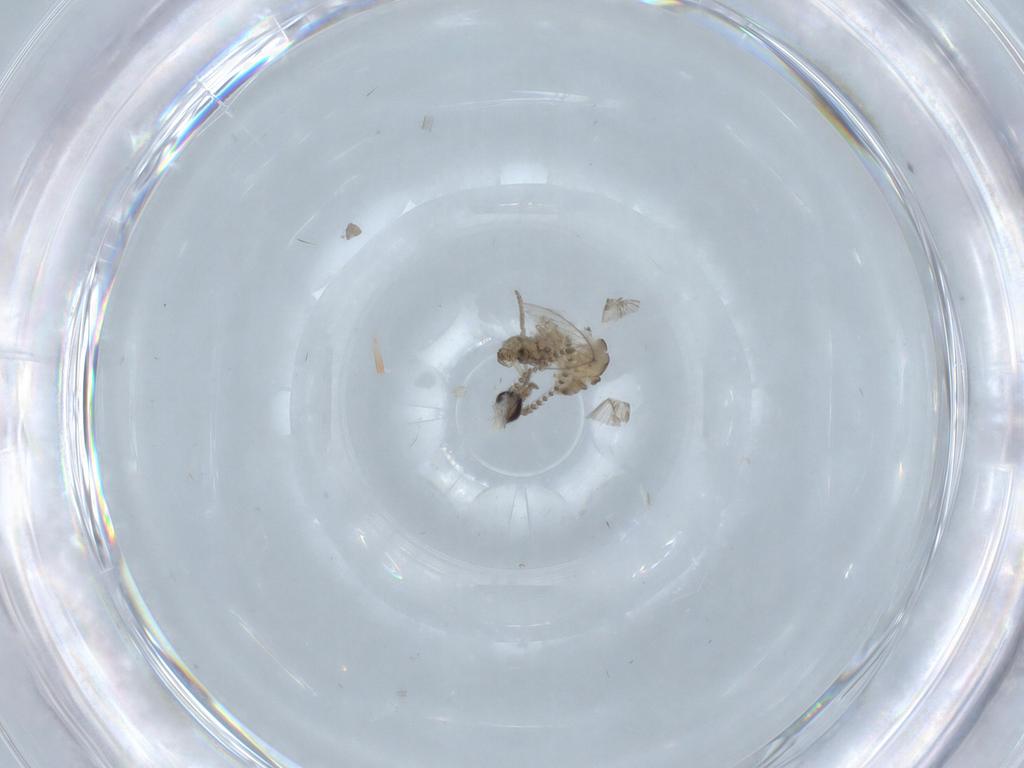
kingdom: Animalia
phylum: Arthropoda
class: Insecta
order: Diptera
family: Psychodidae
